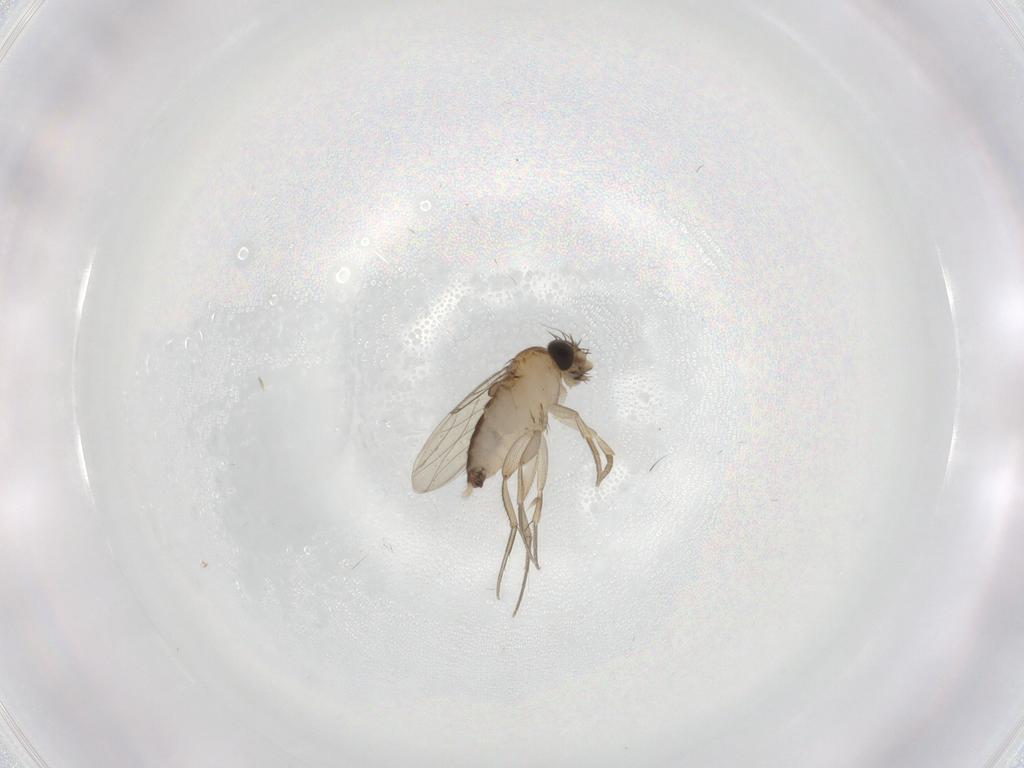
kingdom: Animalia
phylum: Arthropoda
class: Insecta
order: Diptera
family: Phoridae
